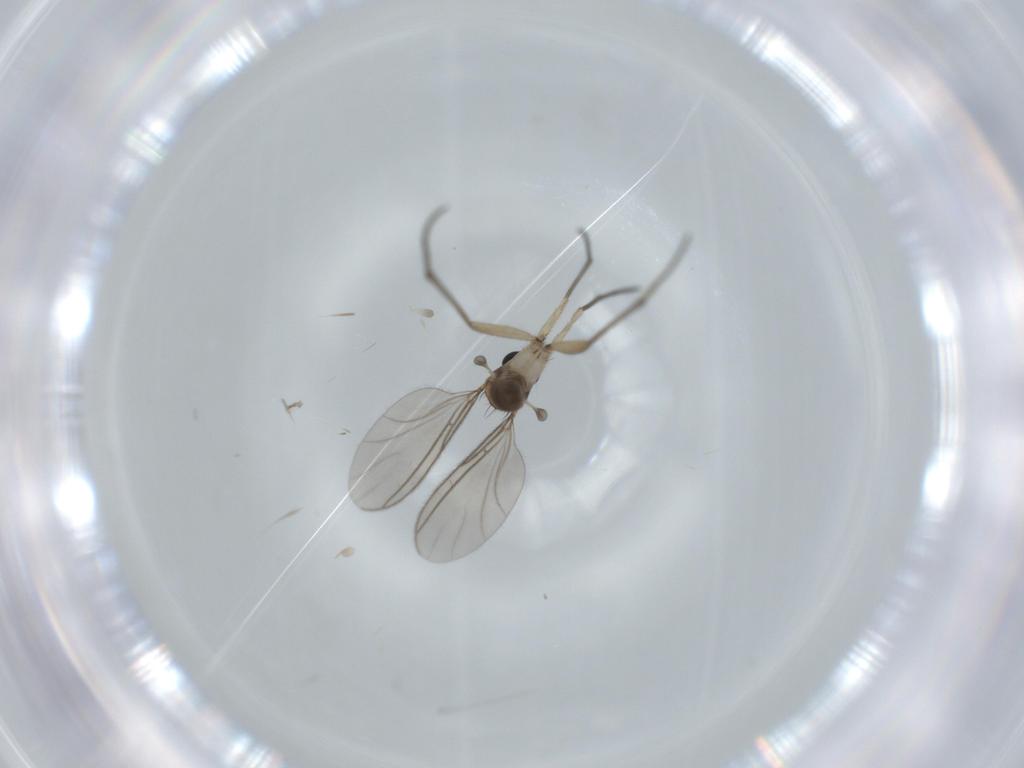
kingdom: Animalia
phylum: Arthropoda
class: Insecta
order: Diptera
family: Sciaridae
